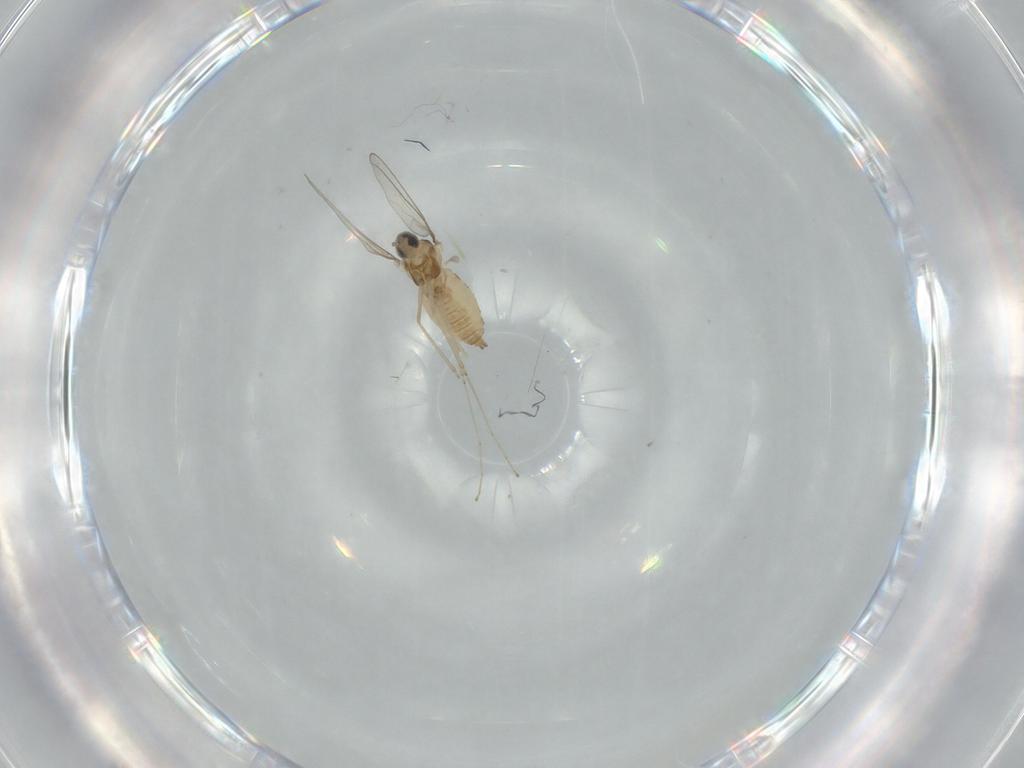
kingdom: Animalia
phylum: Arthropoda
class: Insecta
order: Diptera
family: Cecidomyiidae
